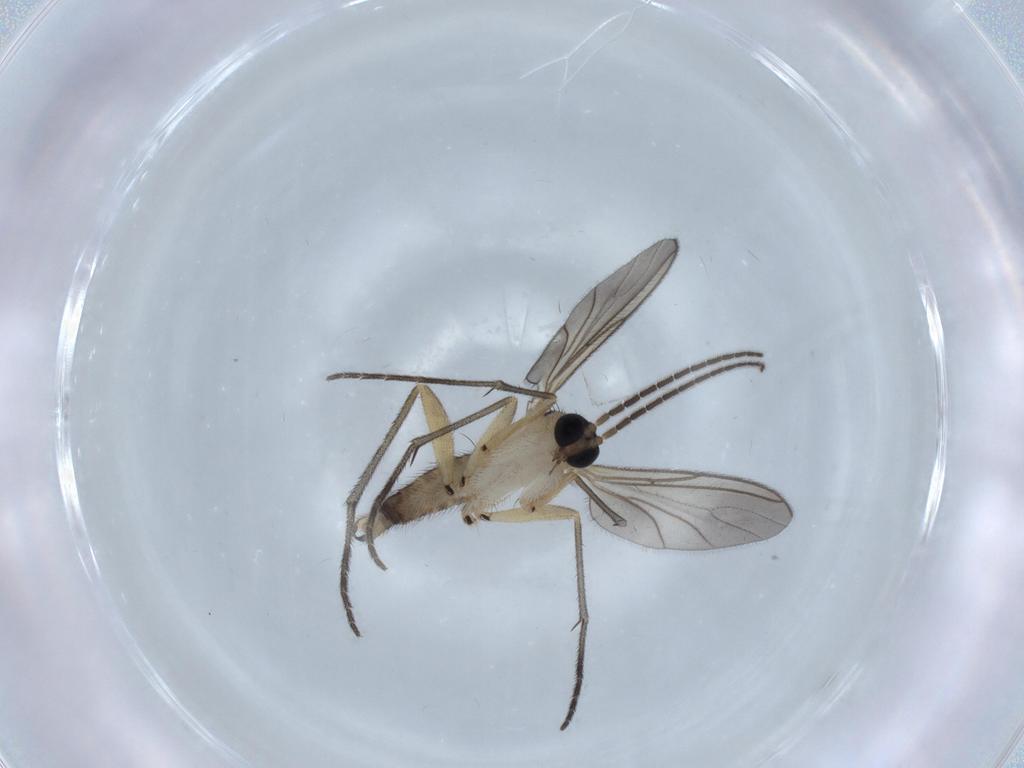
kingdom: Animalia
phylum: Arthropoda
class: Insecta
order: Diptera
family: Sciaridae
